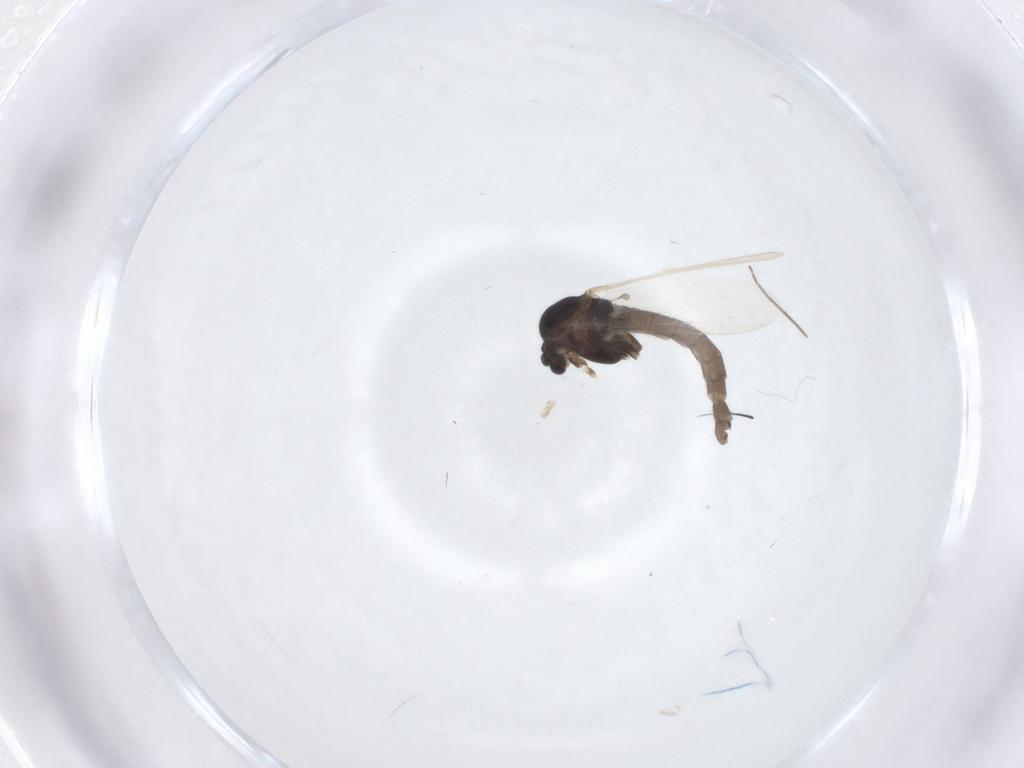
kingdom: Animalia
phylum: Arthropoda
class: Insecta
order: Diptera
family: Chironomidae
